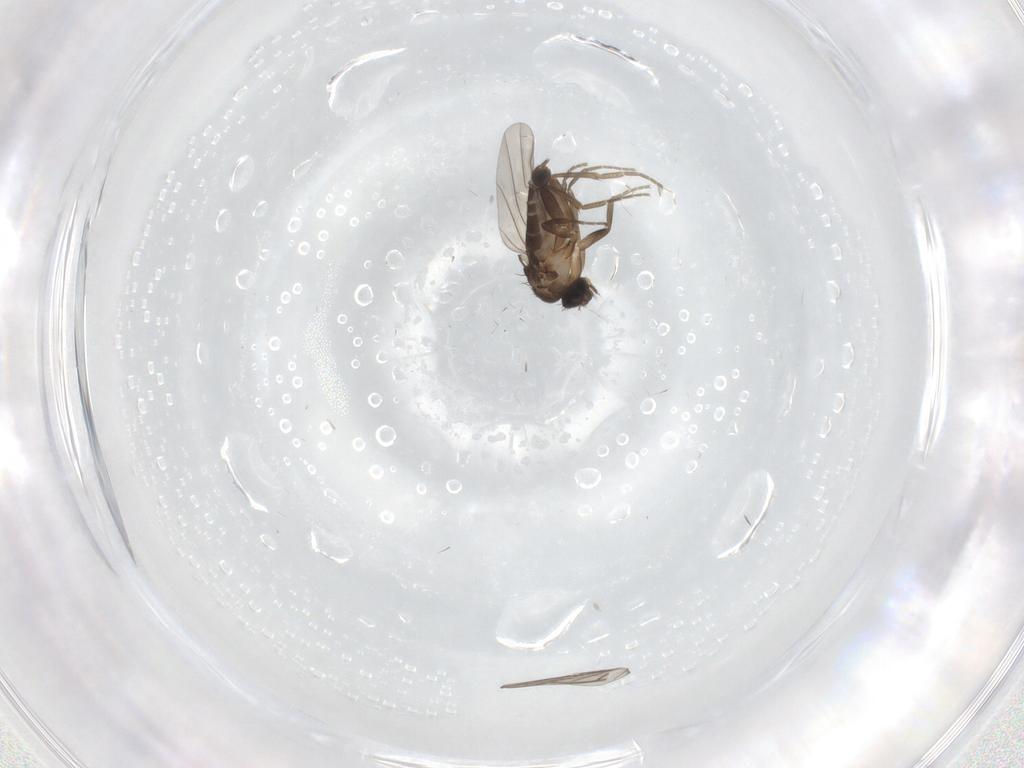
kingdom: Animalia
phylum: Arthropoda
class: Insecta
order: Diptera
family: Phoridae
